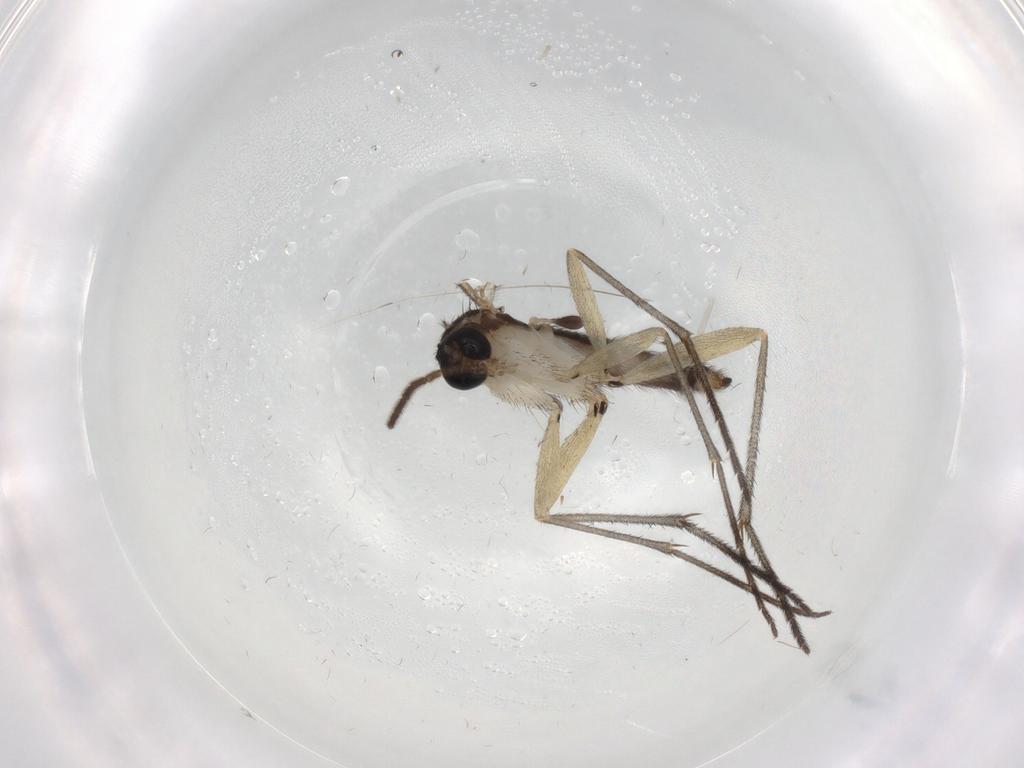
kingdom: Animalia
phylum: Arthropoda
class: Insecta
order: Diptera
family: Sciaridae
